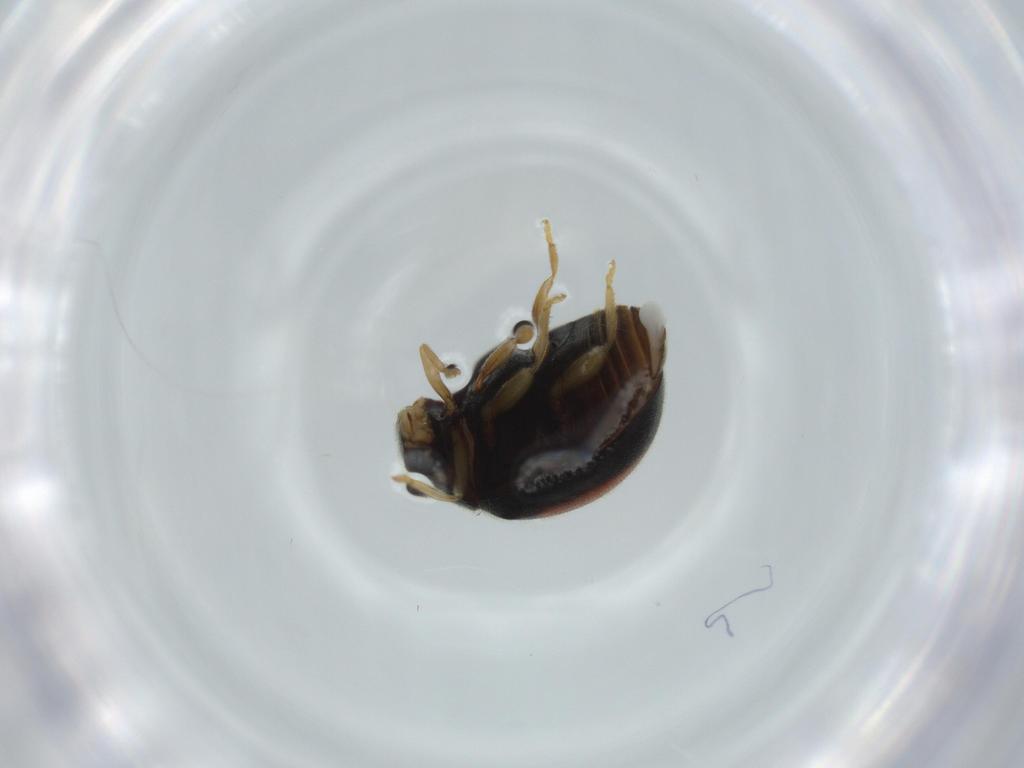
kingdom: Animalia
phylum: Arthropoda
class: Insecta
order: Coleoptera
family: Coccinellidae
